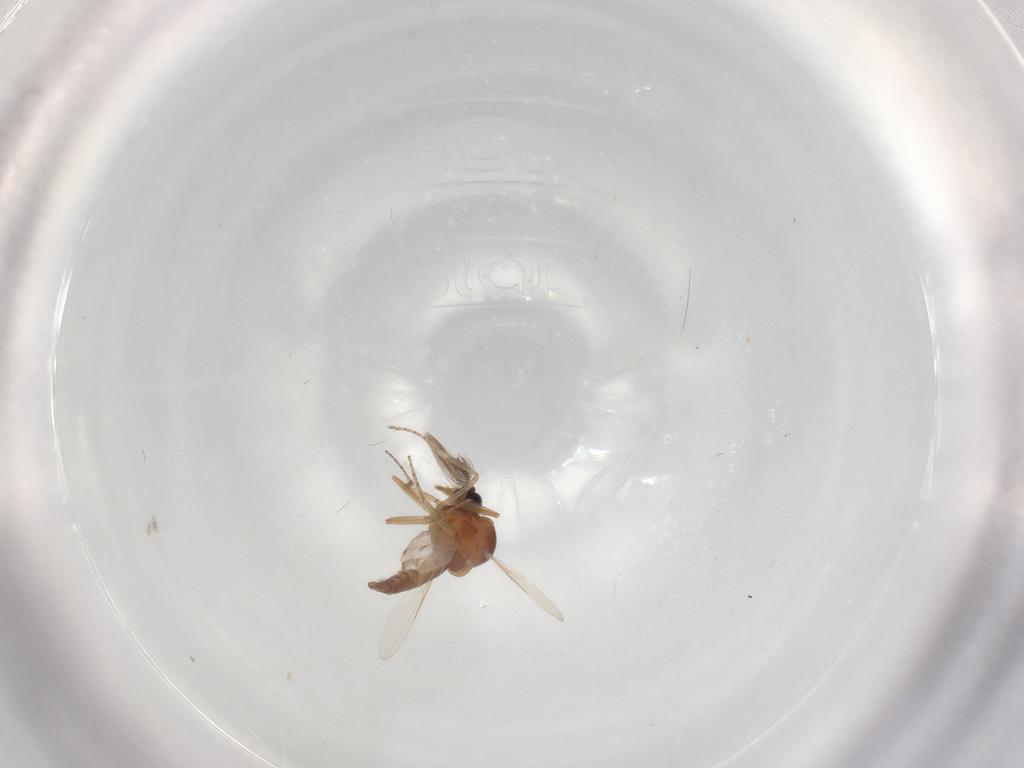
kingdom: Animalia
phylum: Arthropoda
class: Insecta
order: Diptera
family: Ceratopogonidae
